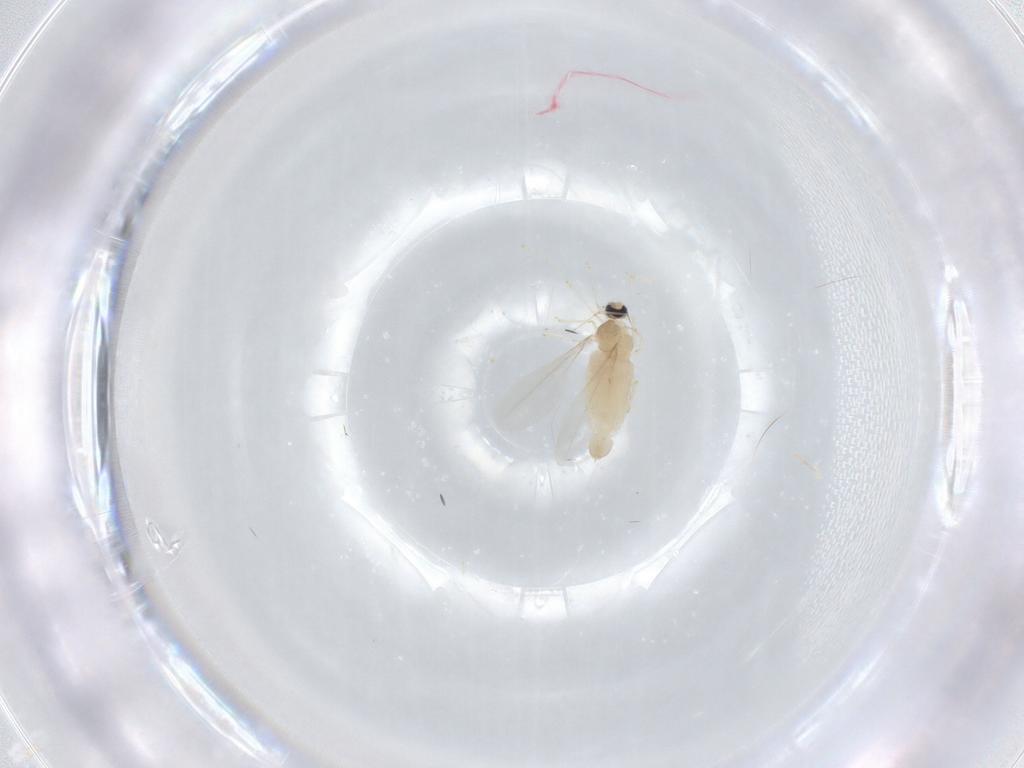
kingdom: Animalia
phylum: Arthropoda
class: Insecta
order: Diptera
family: Cecidomyiidae
